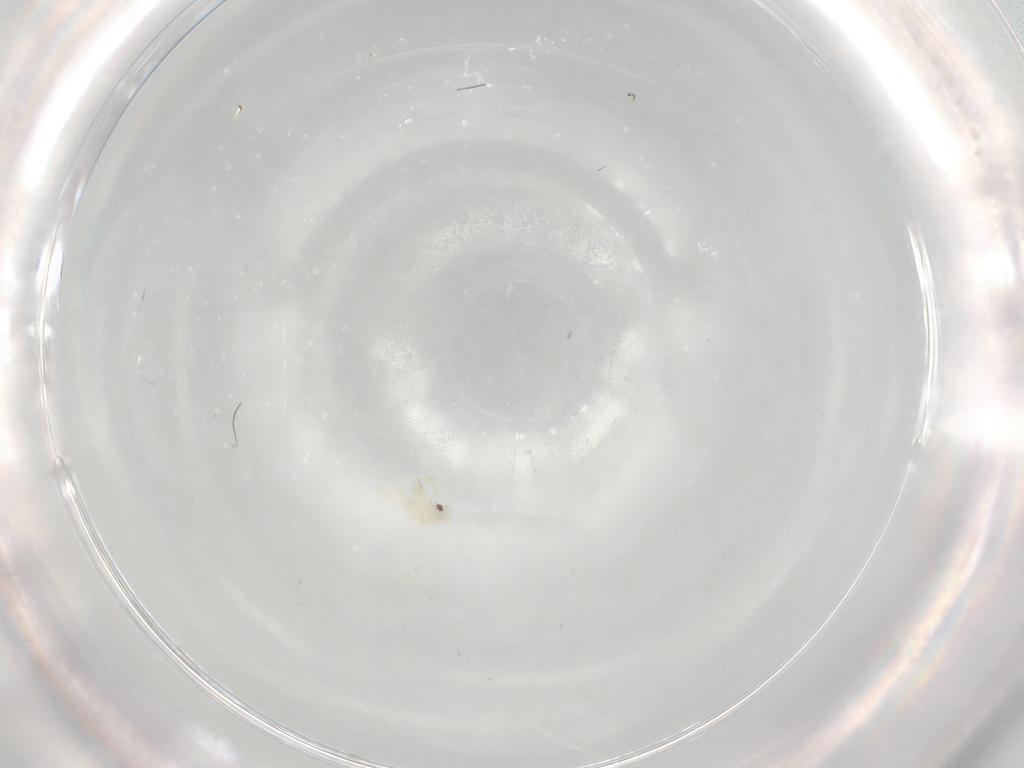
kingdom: Animalia
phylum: Arthropoda
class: Insecta
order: Hemiptera
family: Aleyrodidae
